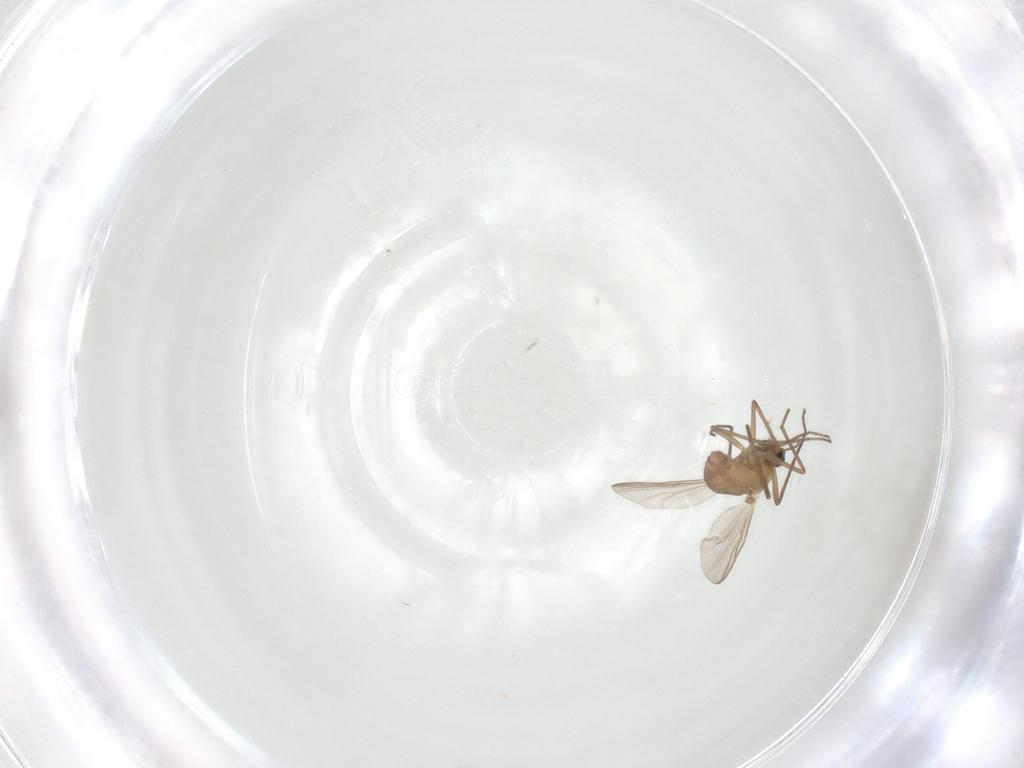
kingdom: Animalia
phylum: Arthropoda
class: Insecta
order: Diptera
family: Chironomidae
